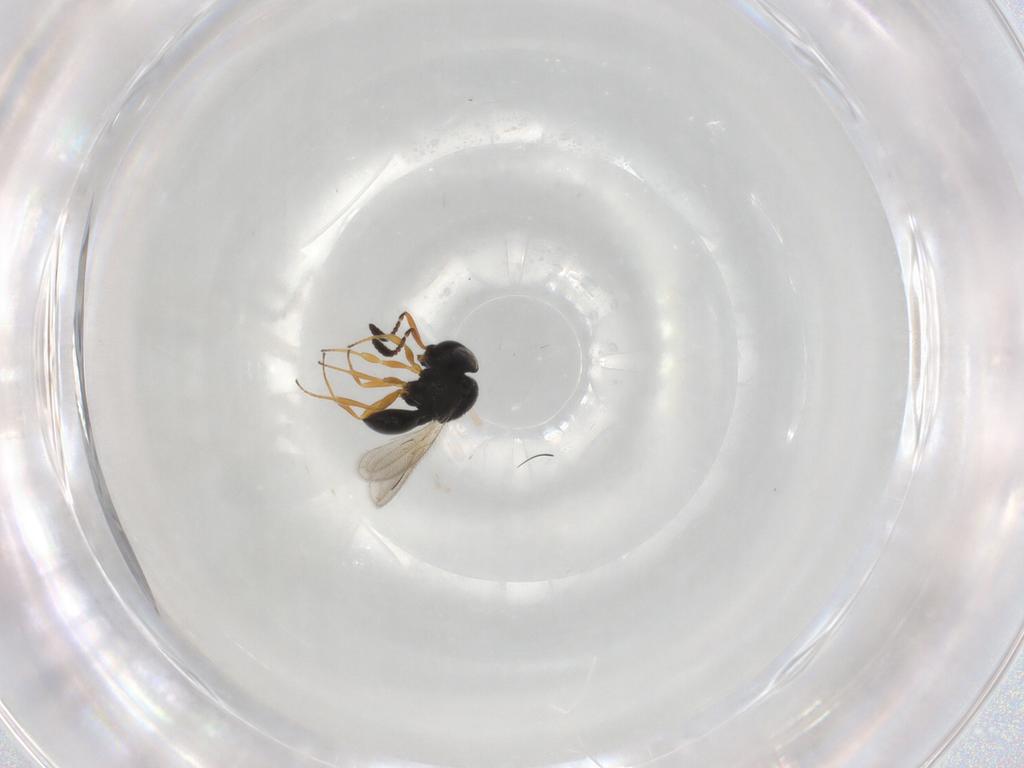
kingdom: Animalia
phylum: Arthropoda
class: Insecta
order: Hymenoptera
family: Scelionidae
